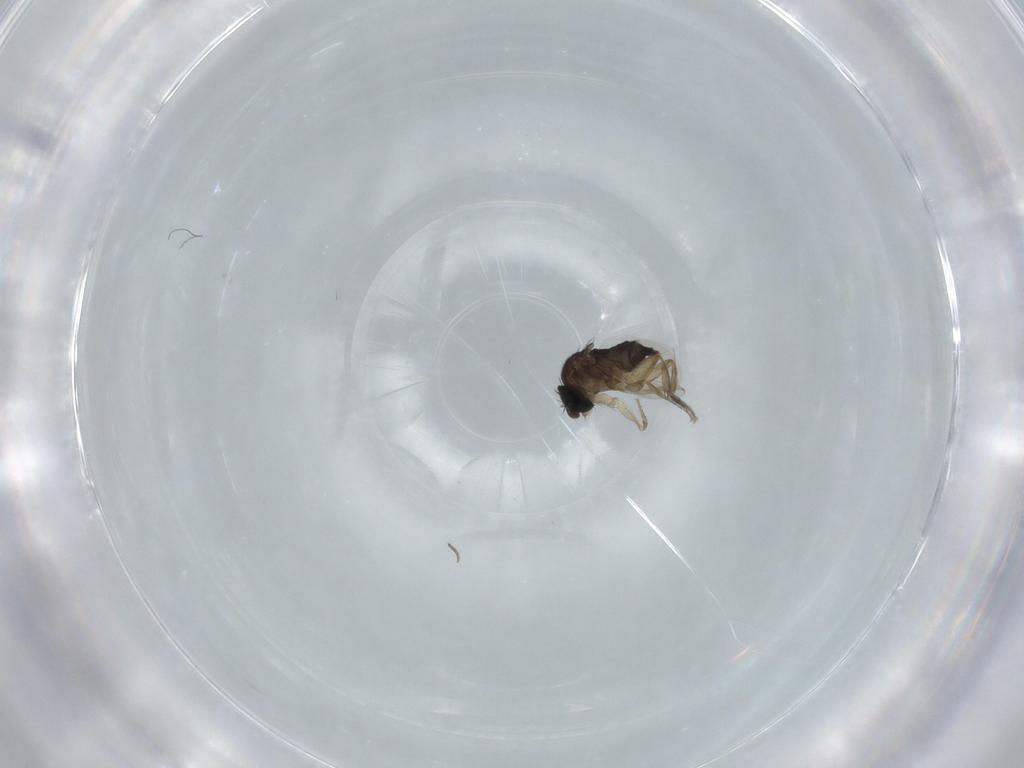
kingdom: Animalia
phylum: Arthropoda
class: Insecta
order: Diptera
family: Phoridae
